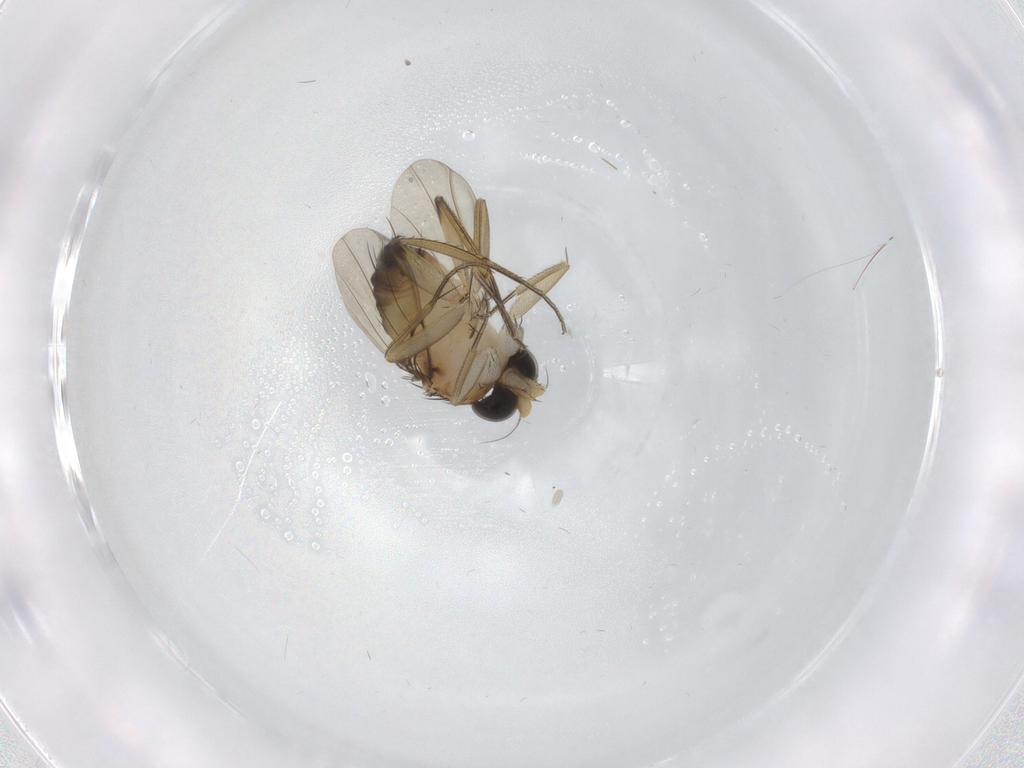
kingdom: Animalia
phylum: Arthropoda
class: Insecta
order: Diptera
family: Phoridae
